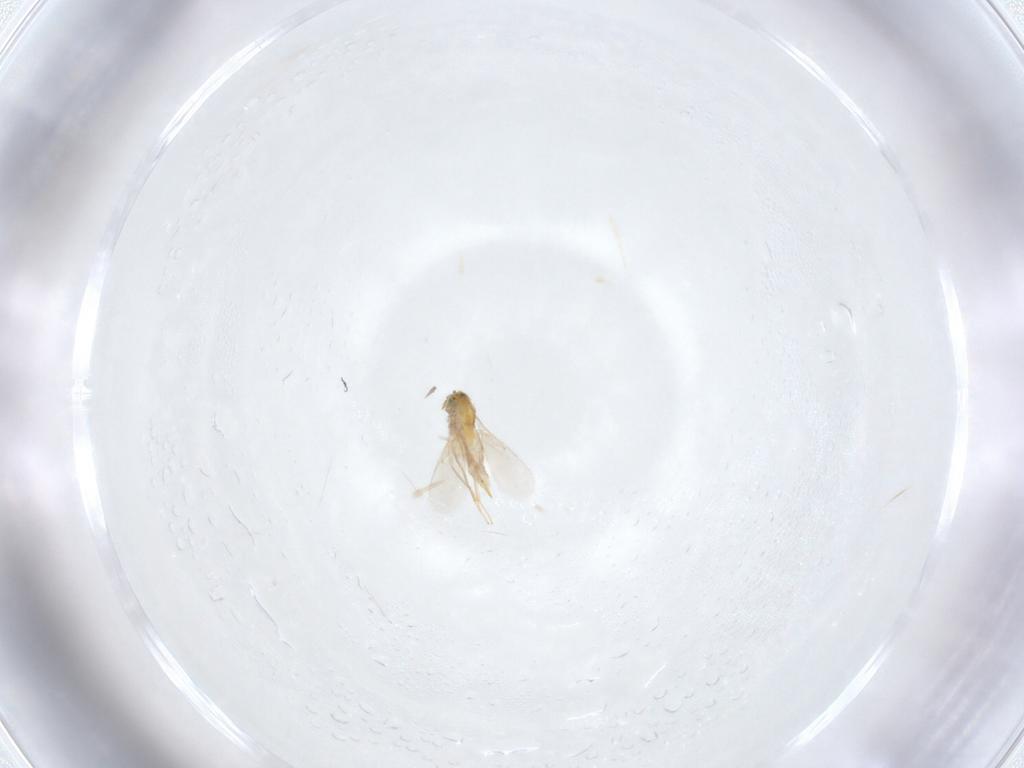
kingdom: Animalia
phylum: Arthropoda
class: Insecta
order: Hymenoptera
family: Aphelinidae
